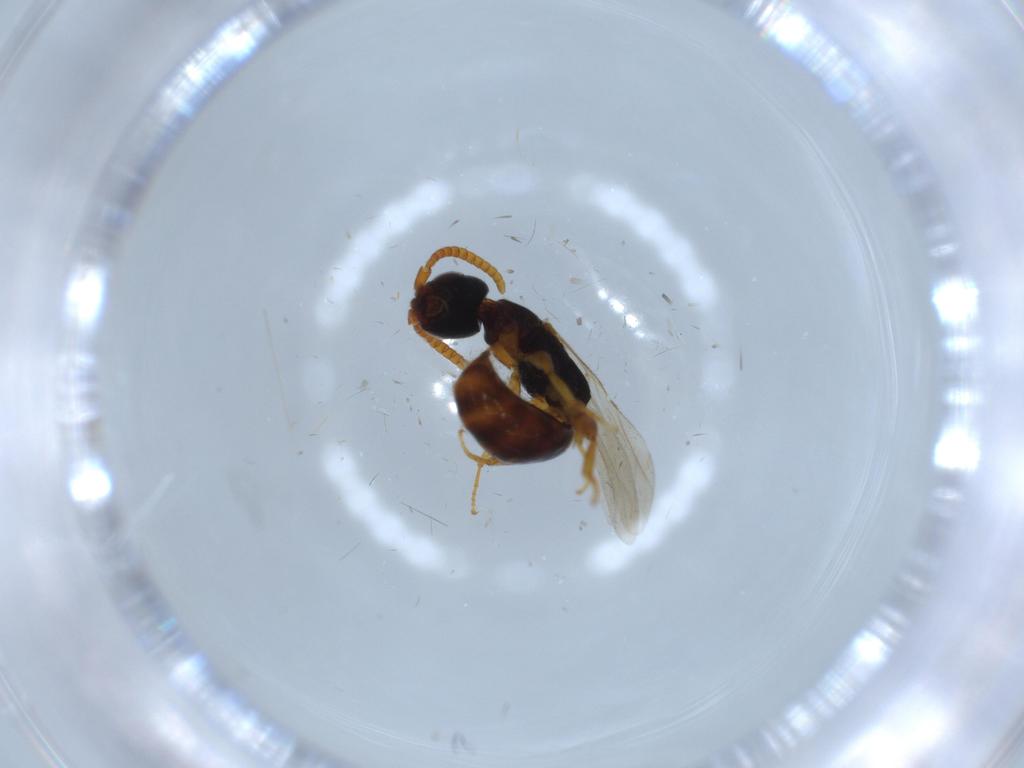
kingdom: Animalia
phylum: Arthropoda
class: Insecta
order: Hymenoptera
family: Bethylidae
